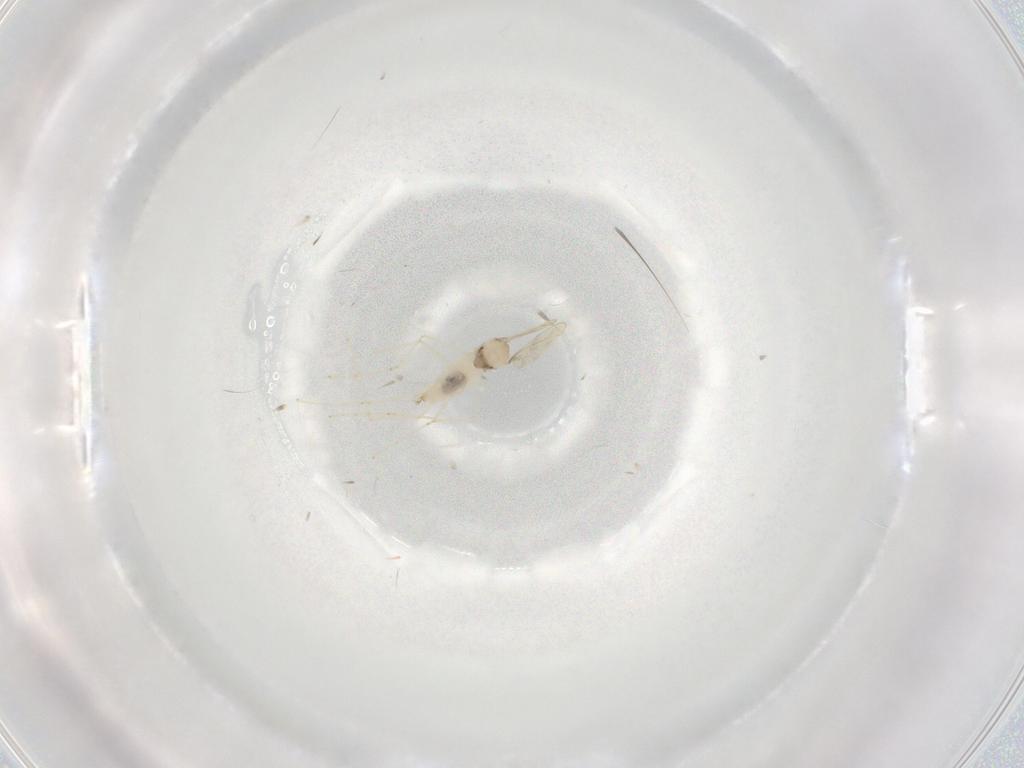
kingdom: Animalia
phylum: Arthropoda
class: Insecta
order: Diptera
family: Cecidomyiidae
